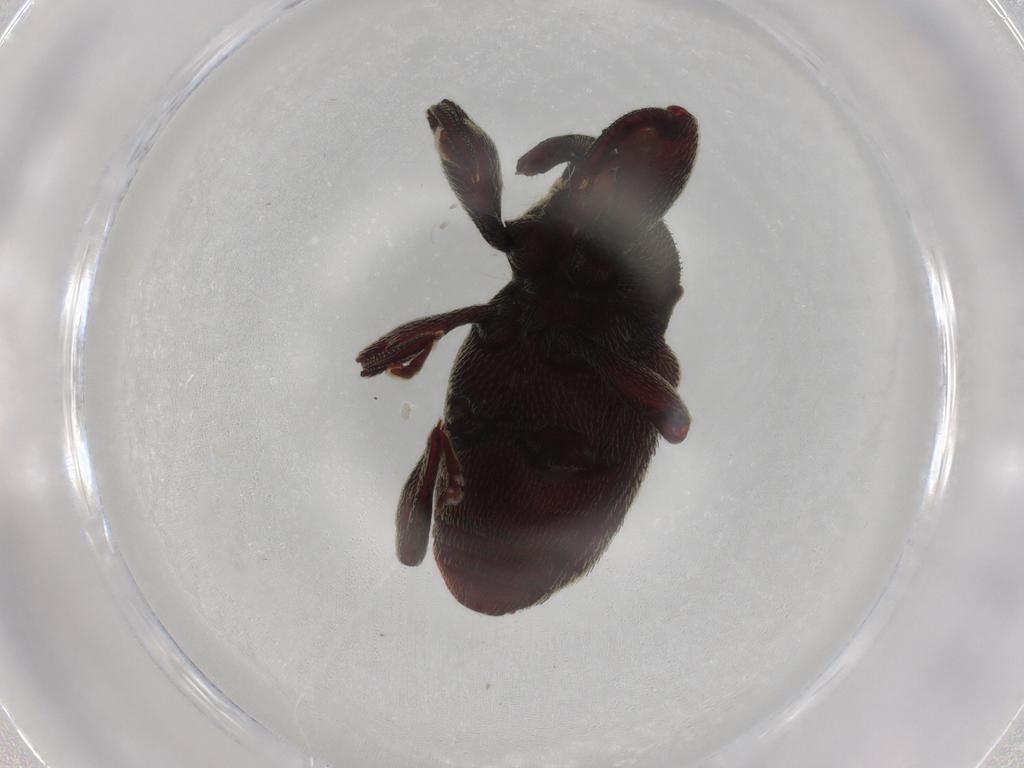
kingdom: Animalia
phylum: Arthropoda
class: Insecta
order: Coleoptera
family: Curculionidae
